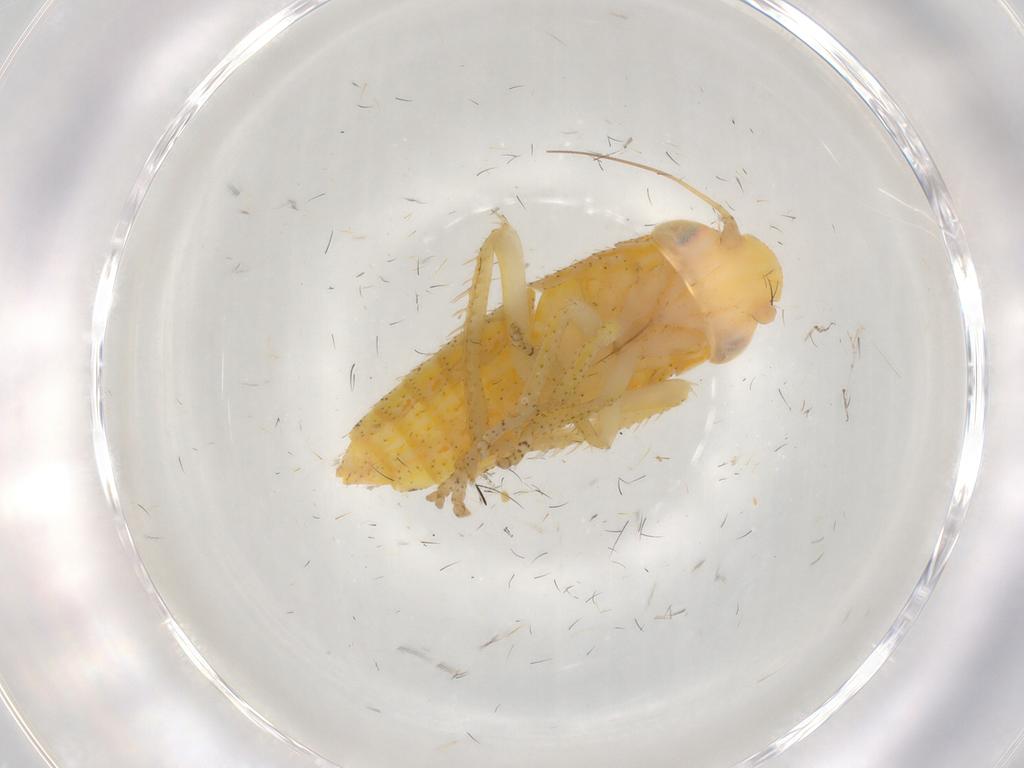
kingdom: Animalia
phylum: Arthropoda
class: Insecta
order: Hemiptera
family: Cicadellidae
